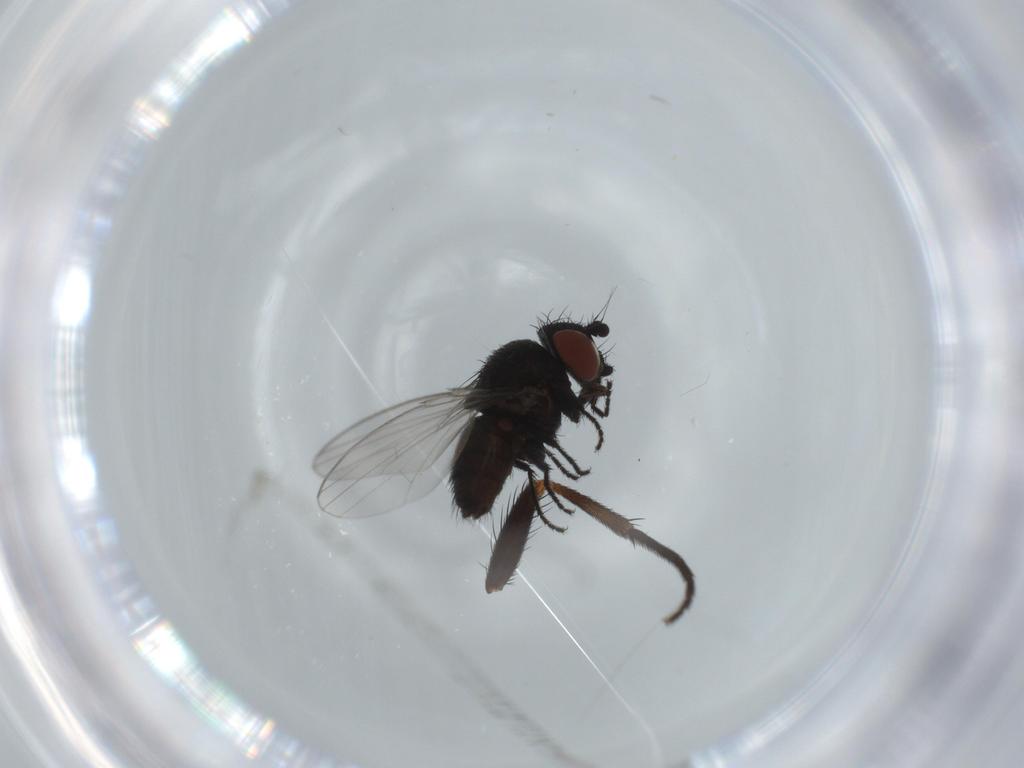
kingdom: Animalia
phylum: Arthropoda
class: Insecta
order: Diptera
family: Milichiidae
